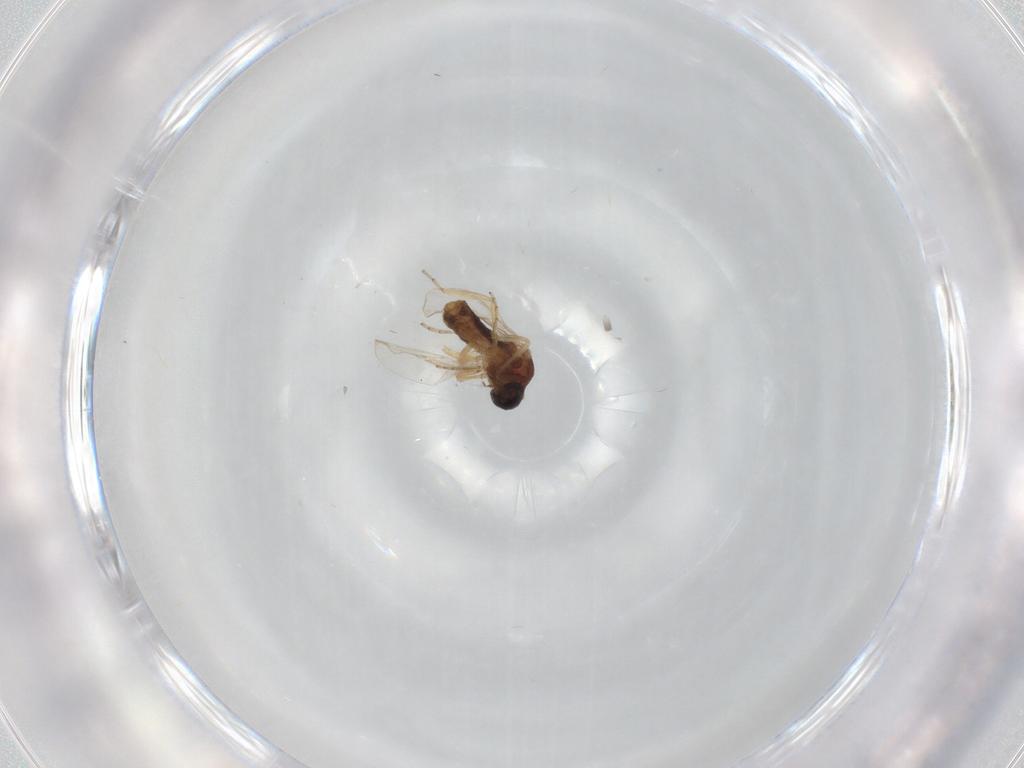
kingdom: Animalia
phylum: Arthropoda
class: Insecta
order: Diptera
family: Ceratopogonidae
